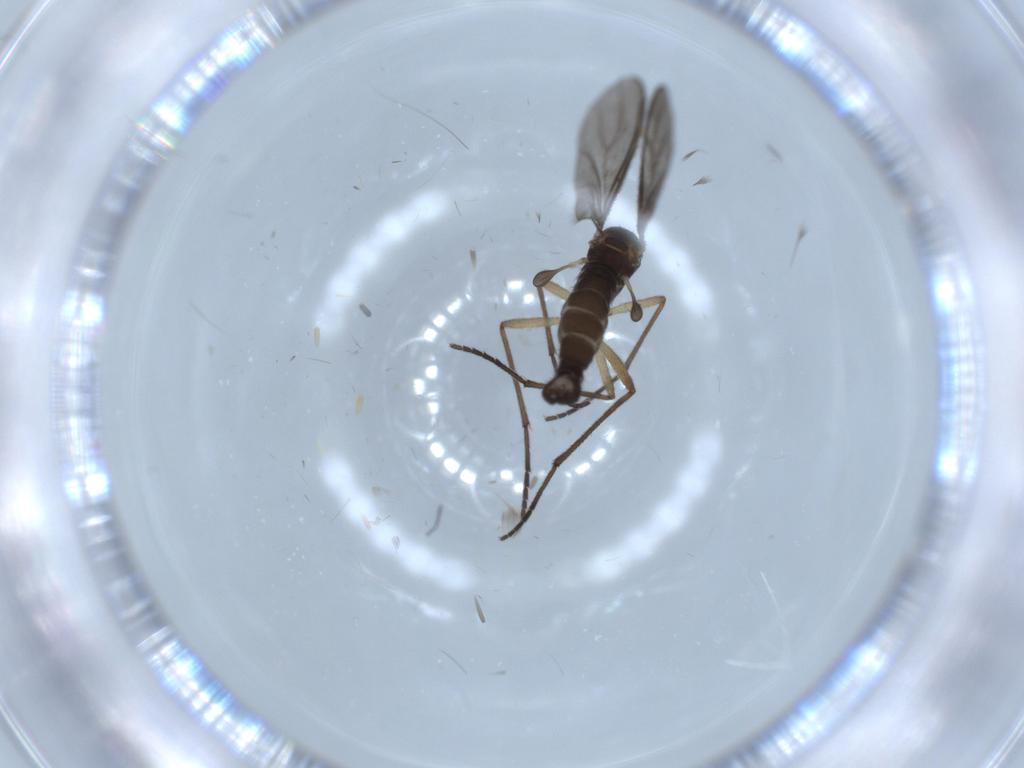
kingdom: Animalia
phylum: Arthropoda
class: Insecta
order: Diptera
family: Sciaridae
